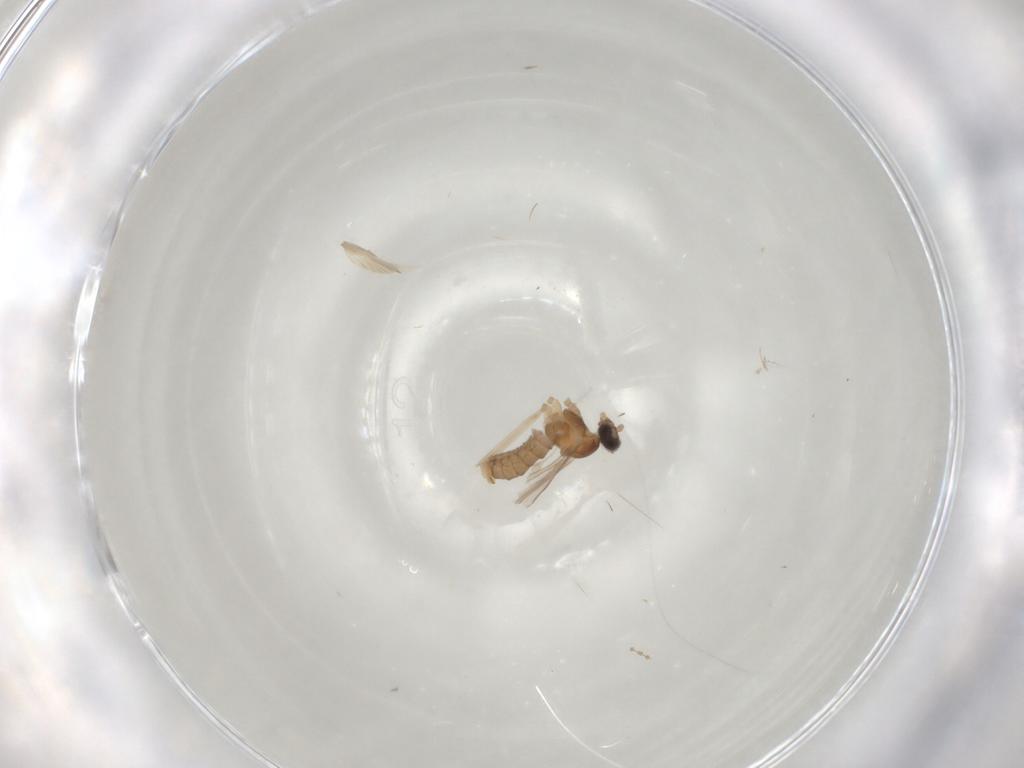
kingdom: Animalia
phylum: Arthropoda
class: Insecta
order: Diptera
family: Cecidomyiidae
